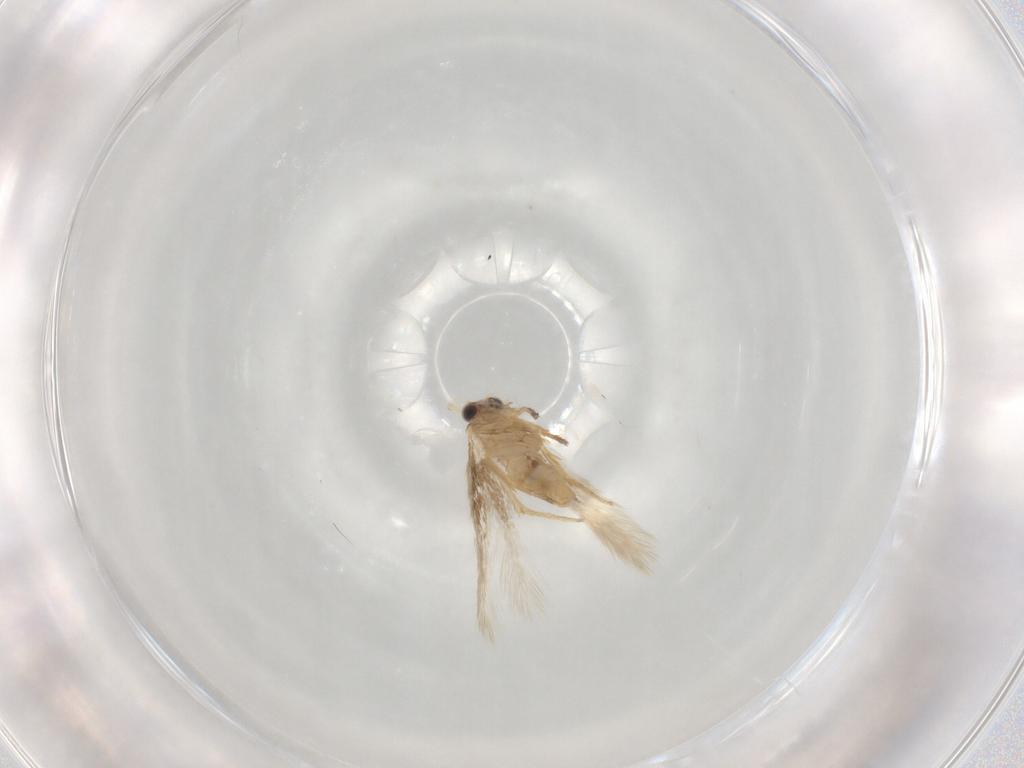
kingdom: Animalia
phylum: Arthropoda
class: Insecta
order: Lepidoptera
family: Nepticulidae
